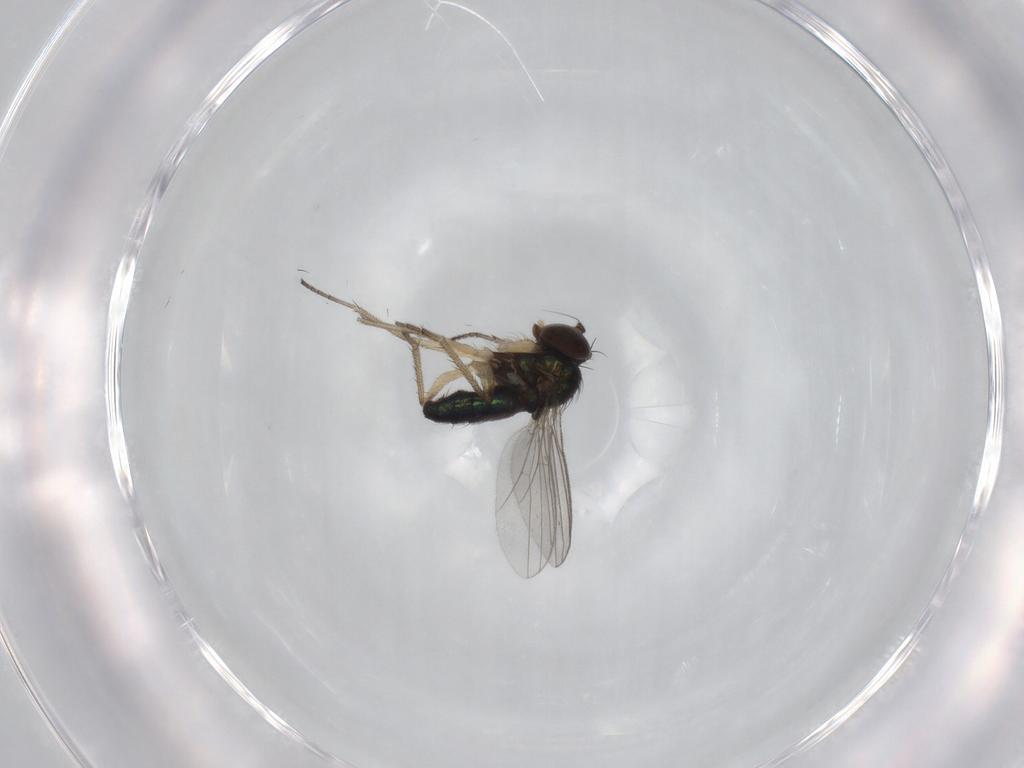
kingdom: Animalia
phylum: Arthropoda
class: Insecta
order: Diptera
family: Dolichopodidae
